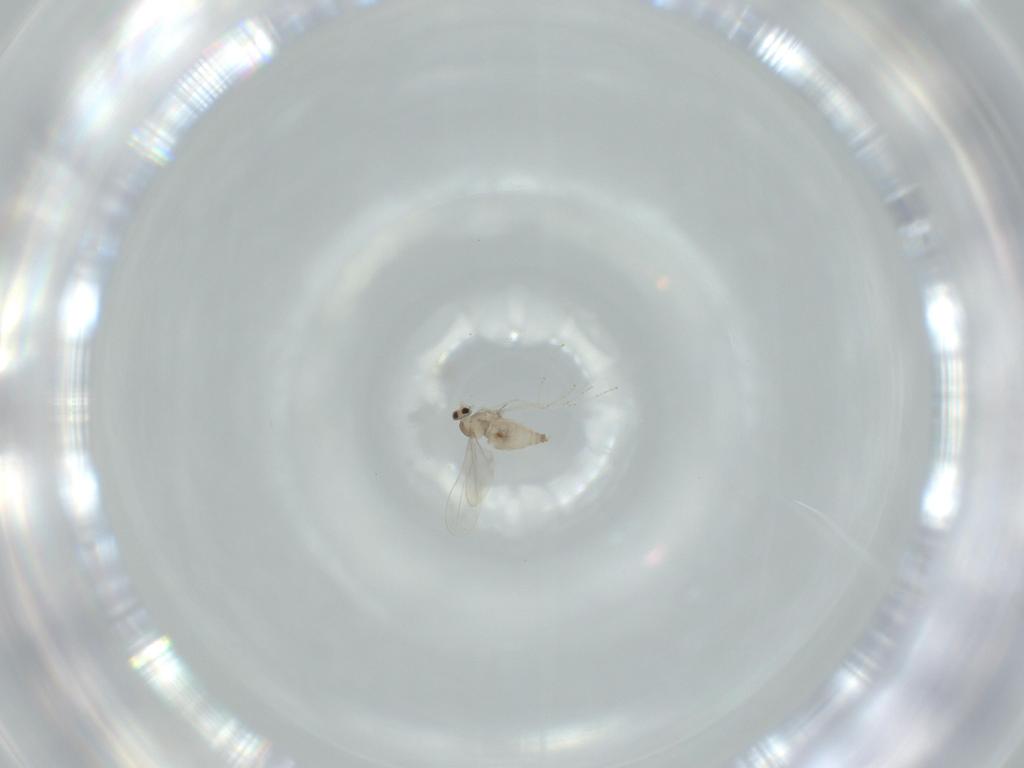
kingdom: Animalia
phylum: Arthropoda
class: Insecta
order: Diptera
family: Cecidomyiidae
